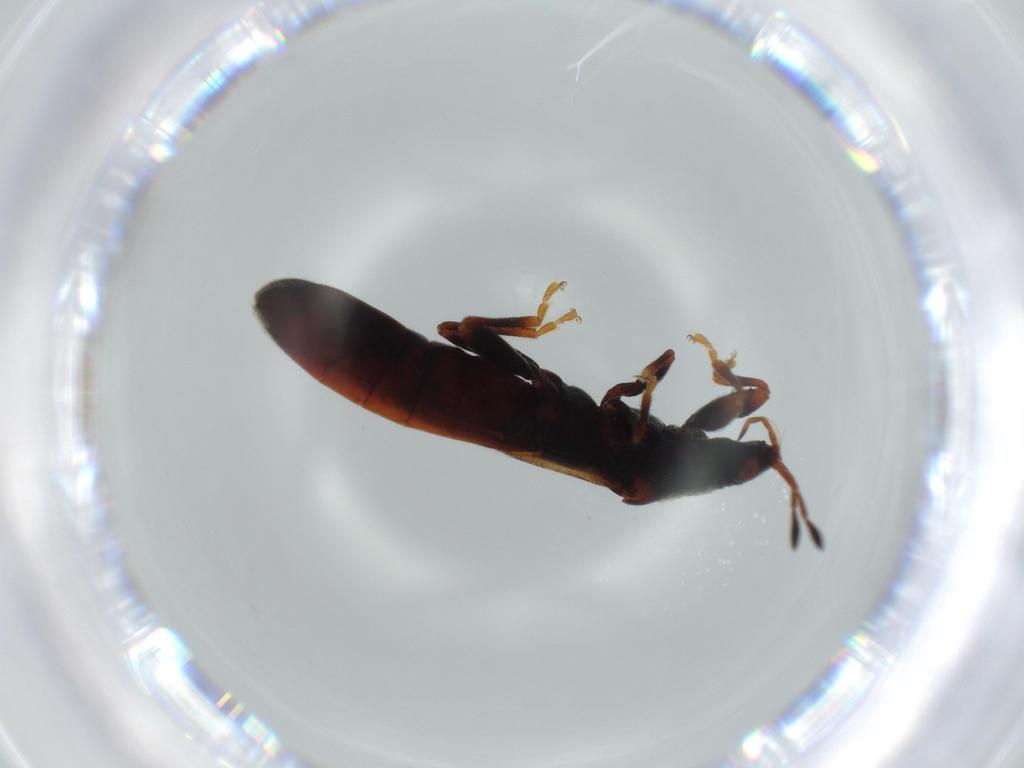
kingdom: Animalia
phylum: Arthropoda
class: Insecta
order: Hemiptera
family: Blissidae
